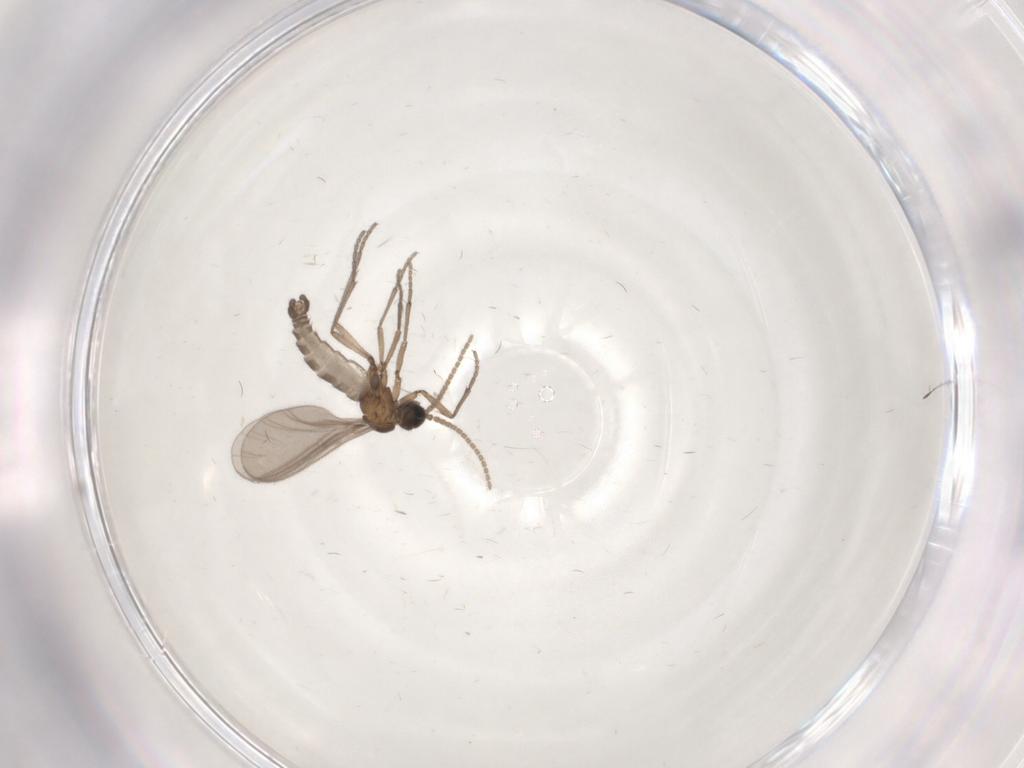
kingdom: Animalia
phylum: Arthropoda
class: Insecta
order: Diptera
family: Sciaridae
